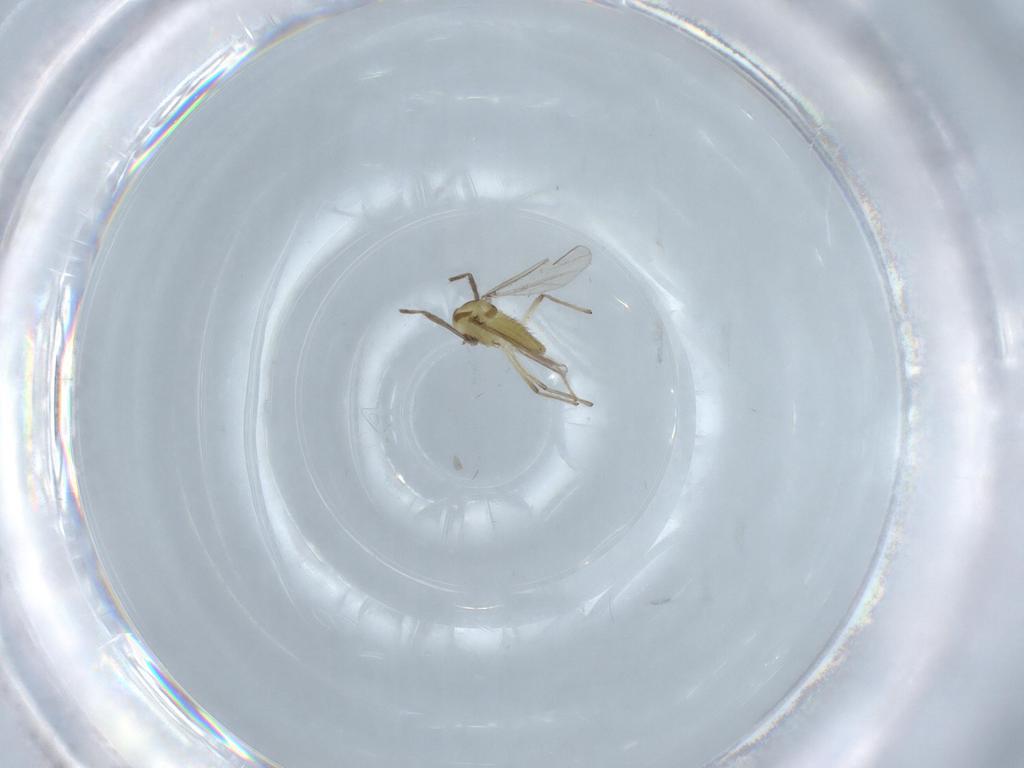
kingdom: Animalia
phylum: Arthropoda
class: Insecta
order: Diptera
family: Chironomidae
